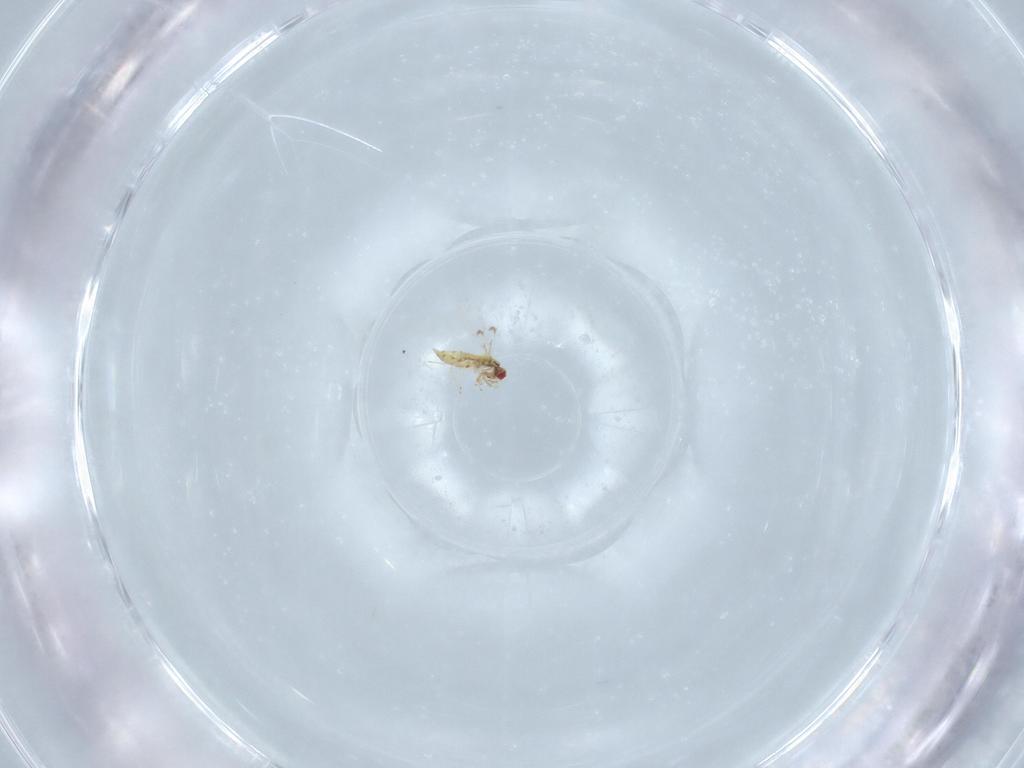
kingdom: Animalia
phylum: Arthropoda
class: Insecta
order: Hymenoptera
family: Trichogrammatidae
